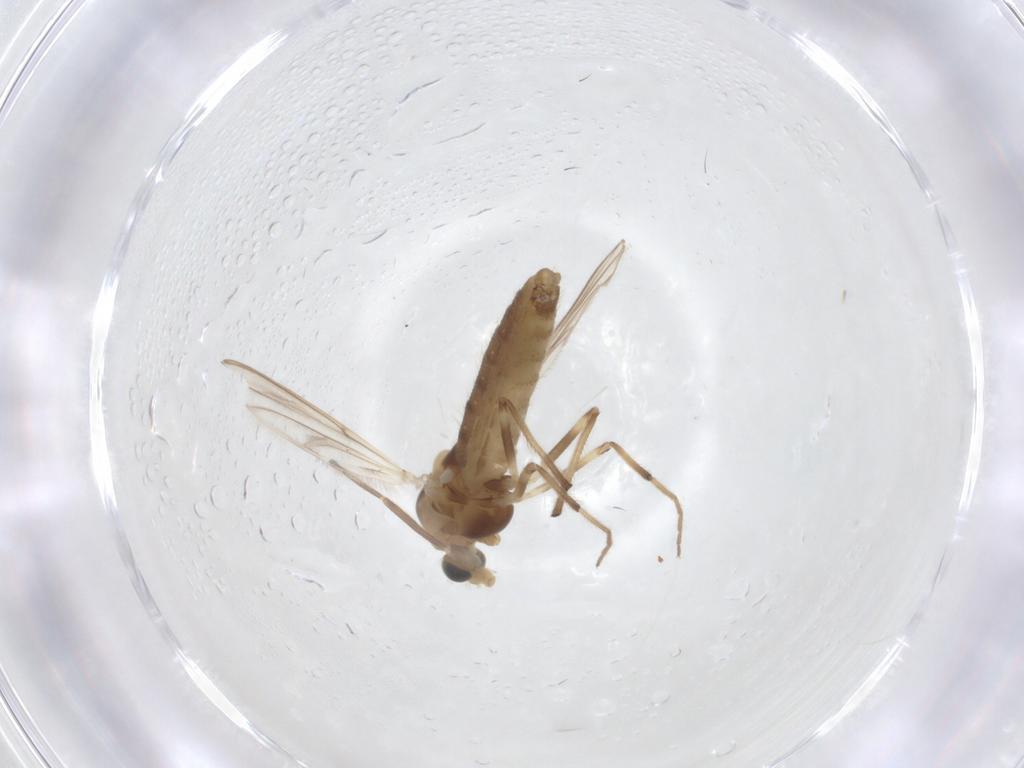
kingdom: Animalia
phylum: Arthropoda
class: Insecta
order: Diptera
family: Chironomidae
